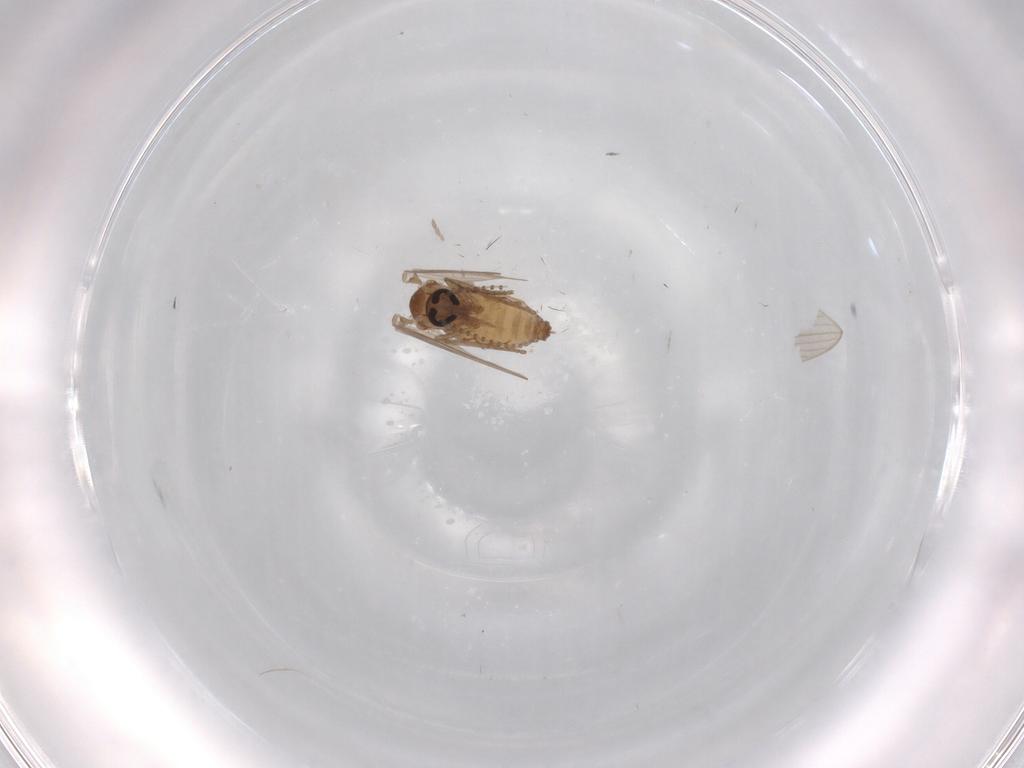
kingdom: Animalia
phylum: Arthropoda
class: Insecta
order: Diptera
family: Psychodidae
